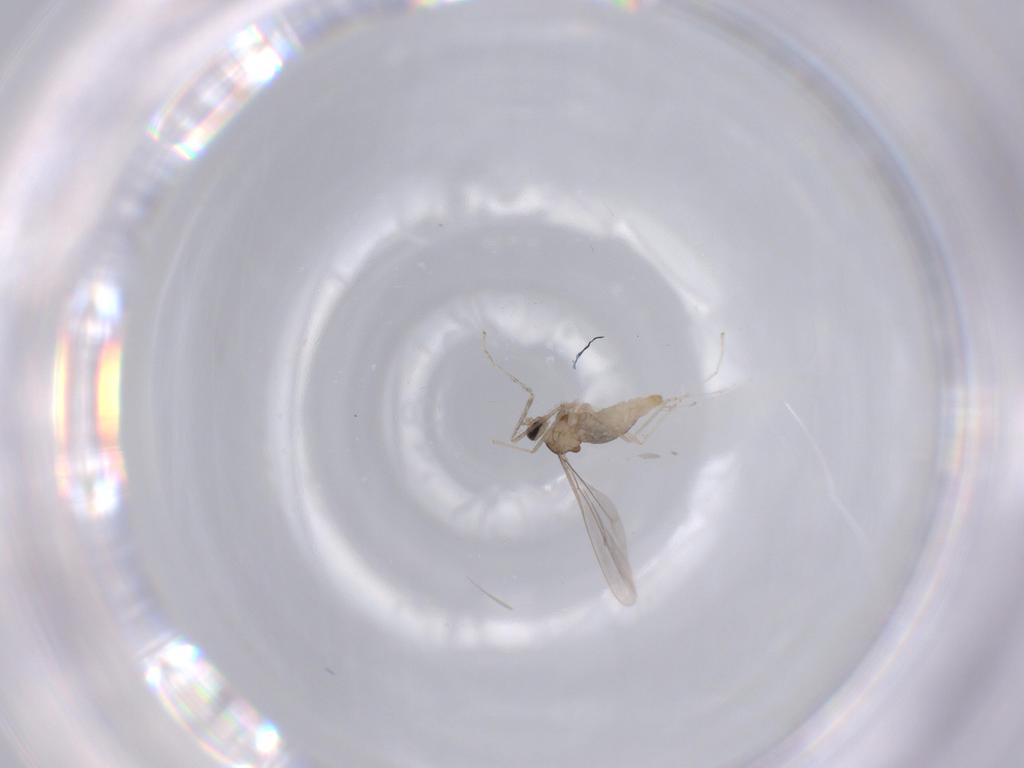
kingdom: Animalia
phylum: Arthropoda
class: Insecta
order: Diptera
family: Cecidomyiidae
